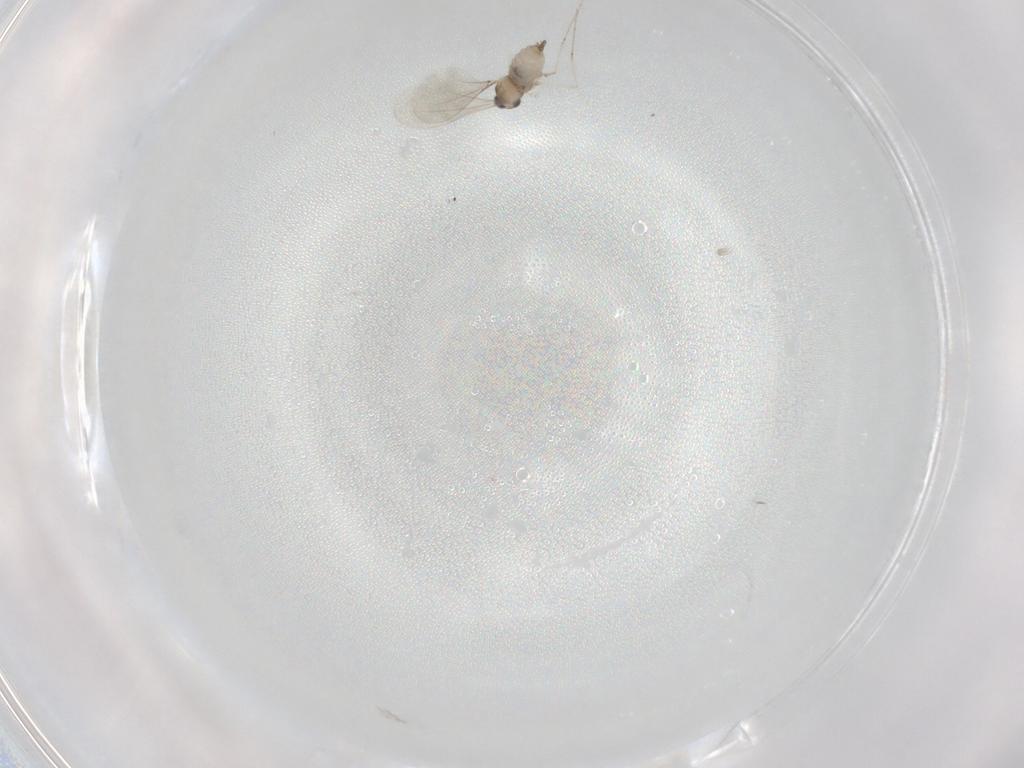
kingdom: Animalia
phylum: Arthropoda
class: Insecta
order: Diptera
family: Cecidomyiidae
